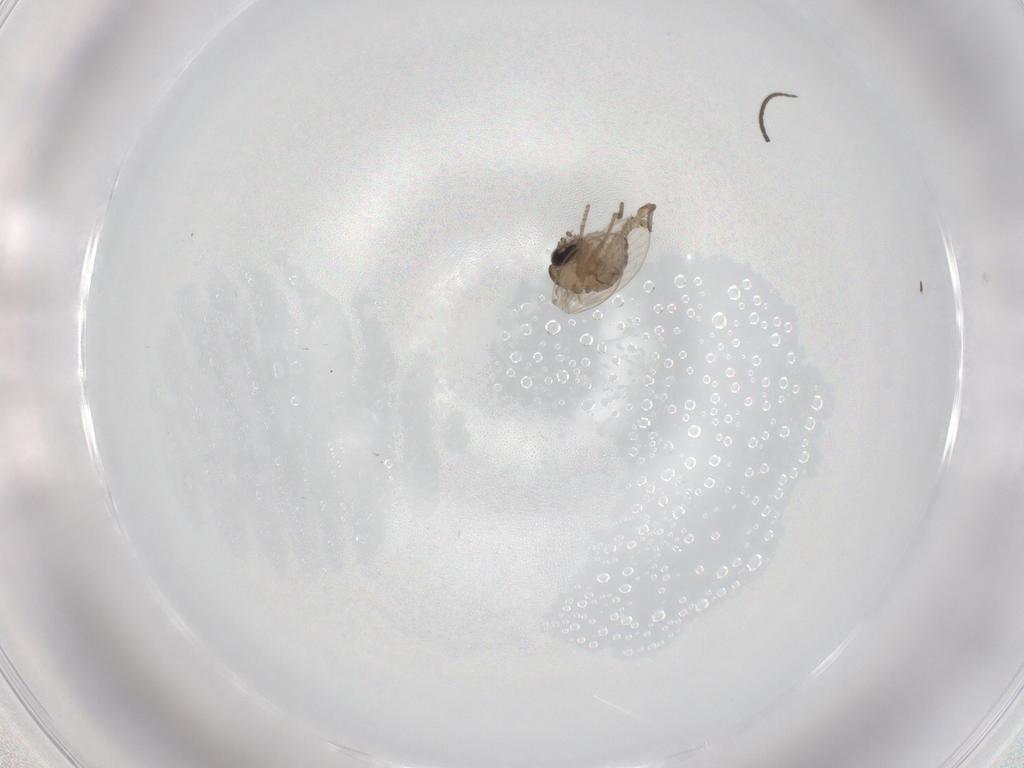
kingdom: Animalia
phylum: Arthropoda
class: Insecta
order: Diptera
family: Sciaridae
